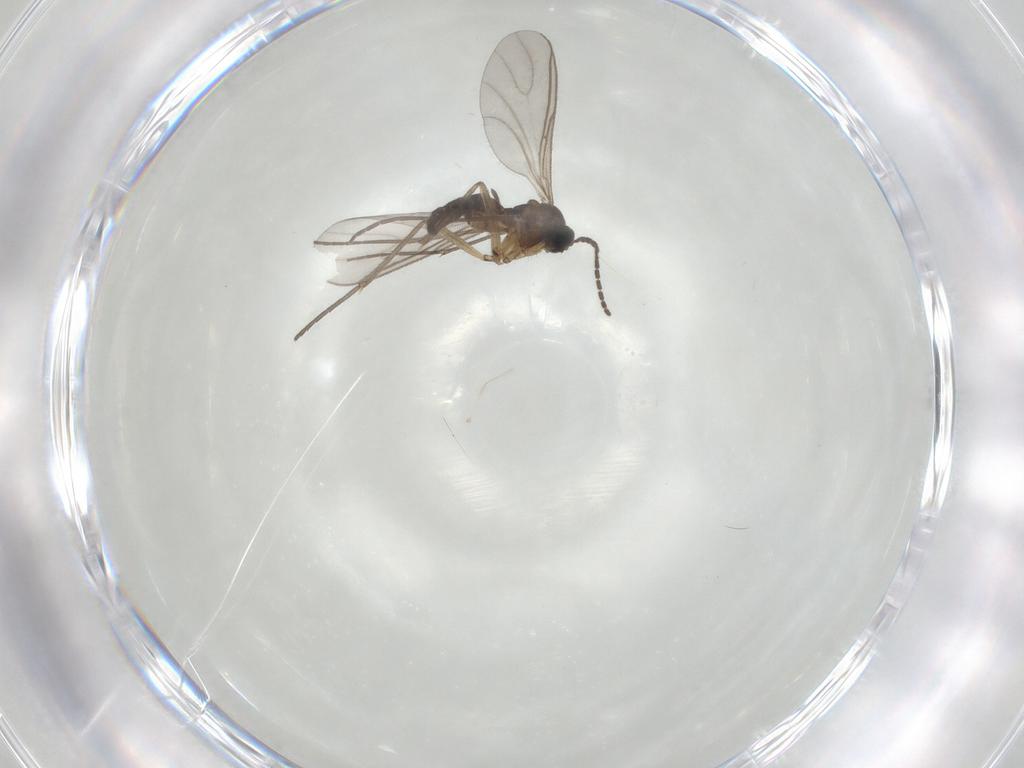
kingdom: Animalia
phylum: Arthropoda
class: Insecta
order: Diptera
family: Sciaridae
